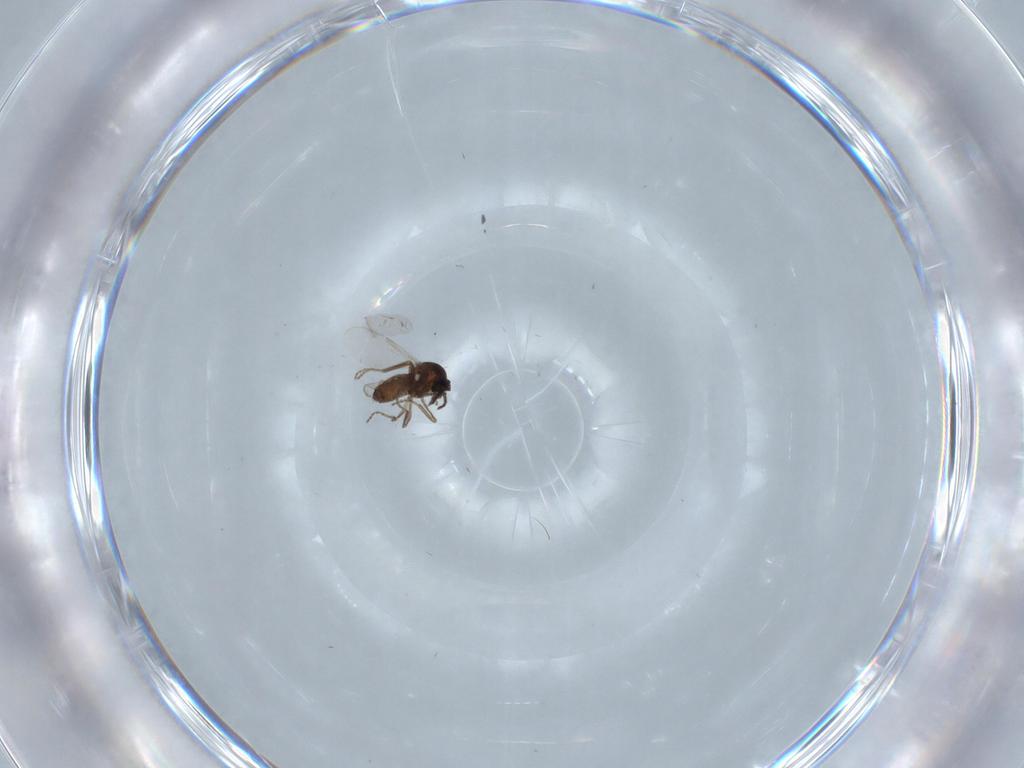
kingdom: Animalia
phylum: Arthropoda
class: Insecta
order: Diptera
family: Ceratopogonidae
